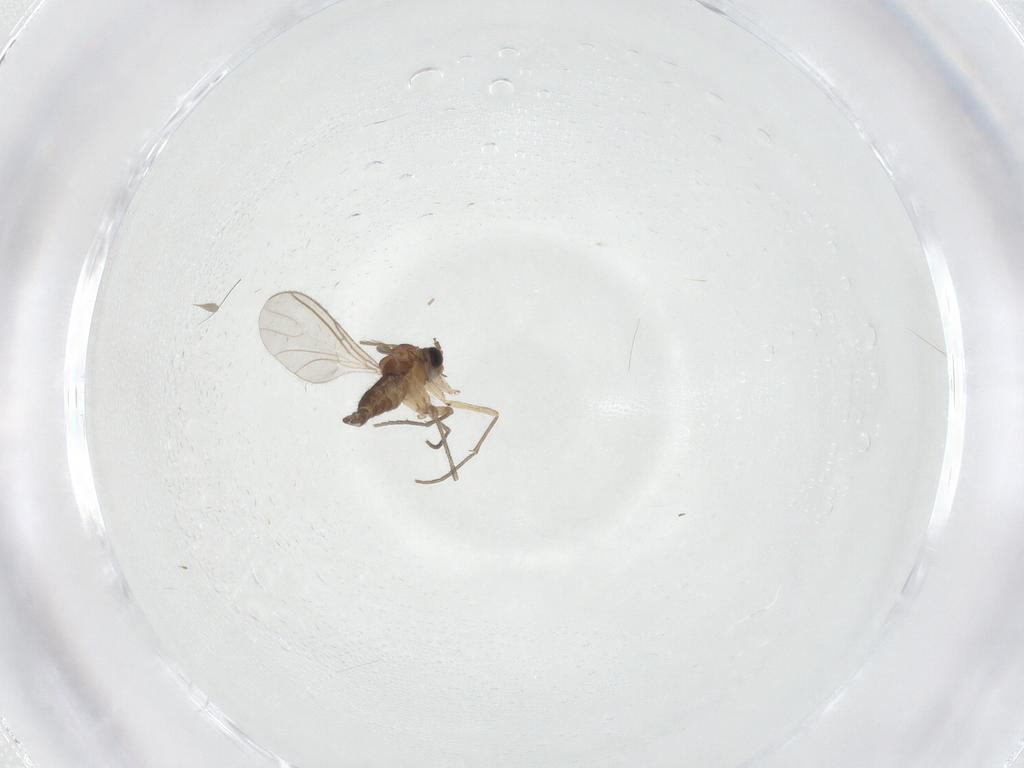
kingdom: Animalia
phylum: Arthropoda
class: Insecta
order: Diptera
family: Sciaridae
